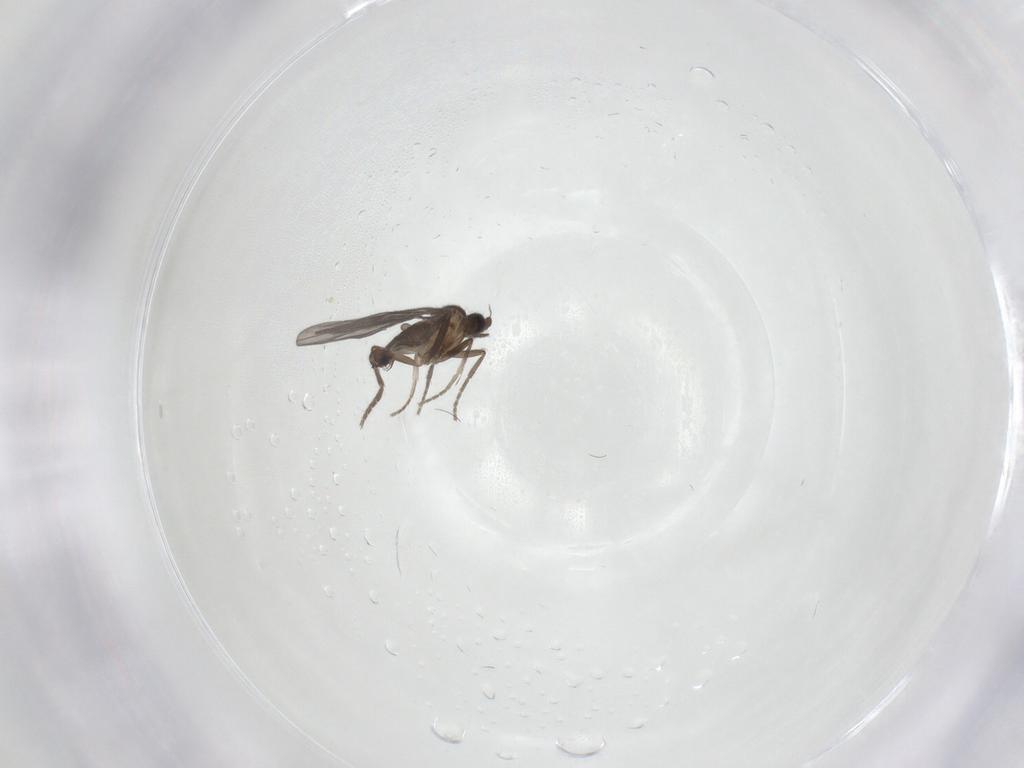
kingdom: Animalia
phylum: Arthropoda
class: Insecta
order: Diptera
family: Phoridae
